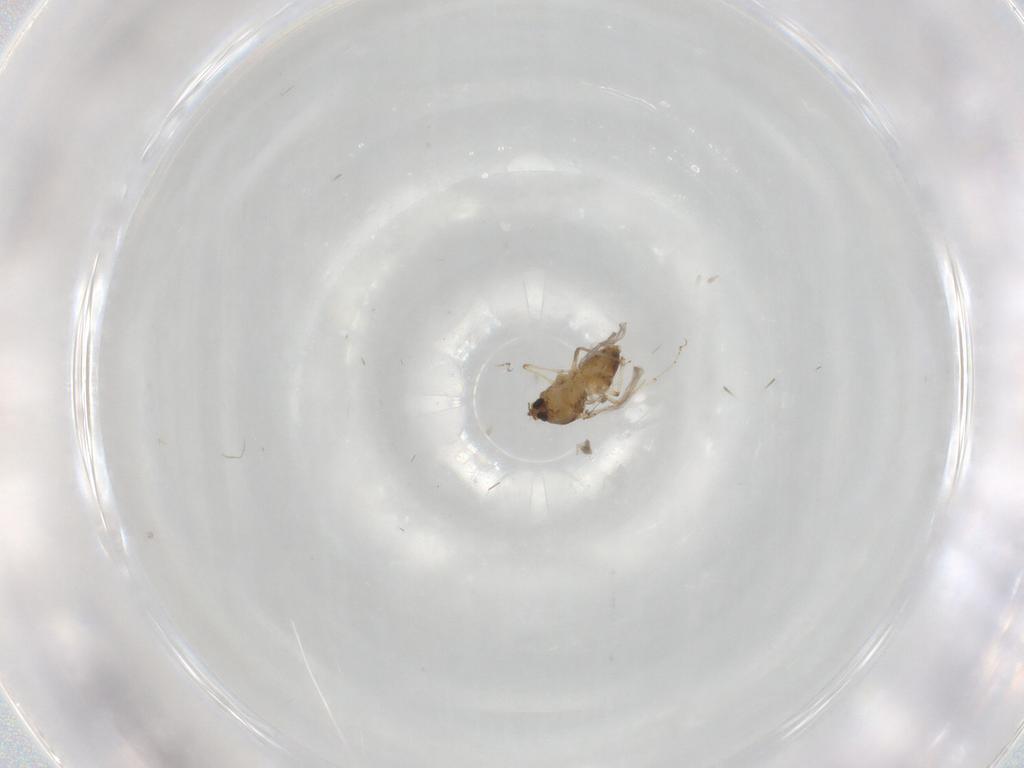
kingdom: Animalia
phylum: Arthropoda
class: Insecta
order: Diptera
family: Ceratopogonidae
